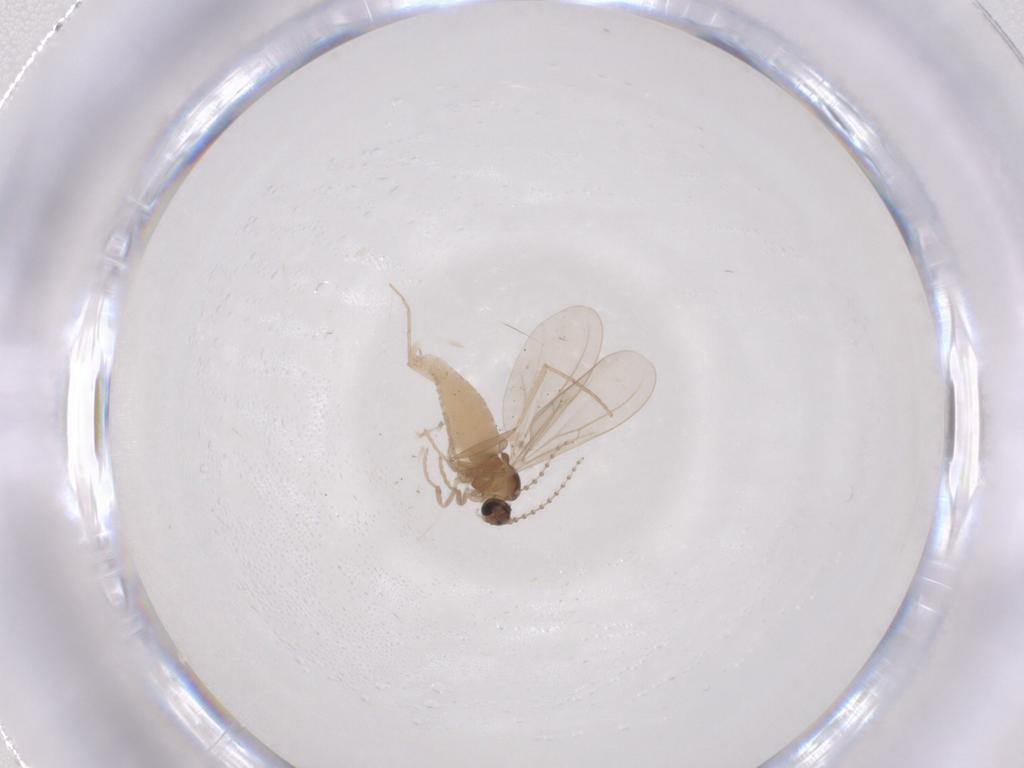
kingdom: Animalia
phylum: Arthropoda
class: Insecta
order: Diptera
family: Cecidomyiidae
